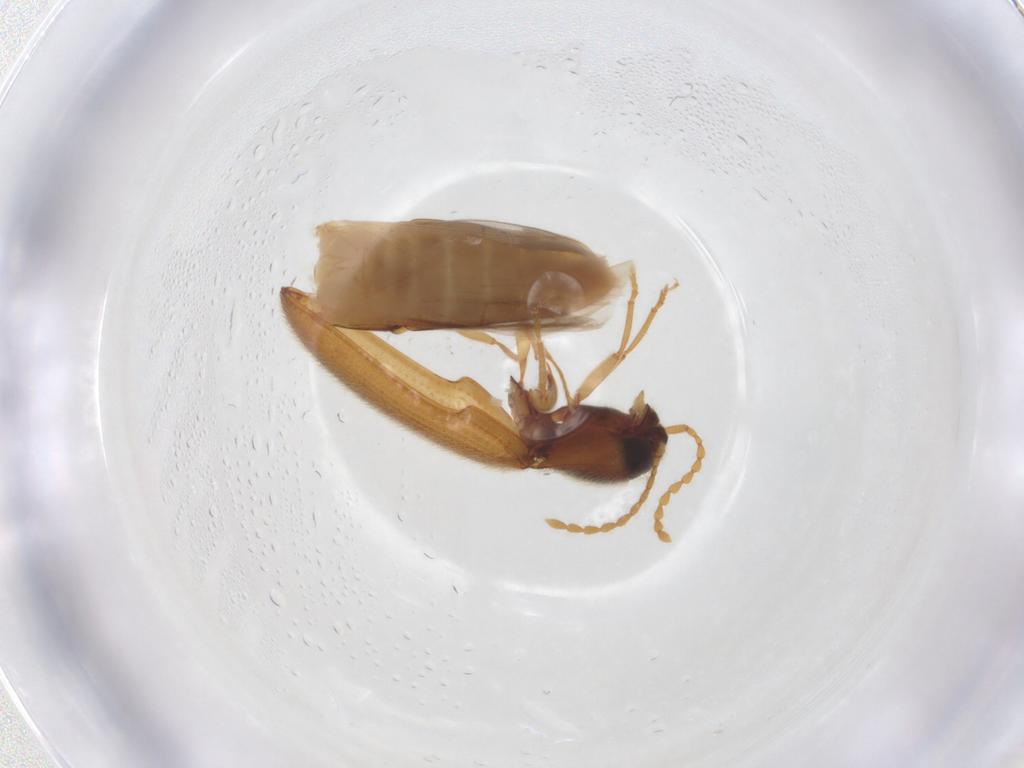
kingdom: Animalia
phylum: Arthropoda
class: Insecta
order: Coleoptera
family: Elateridae
